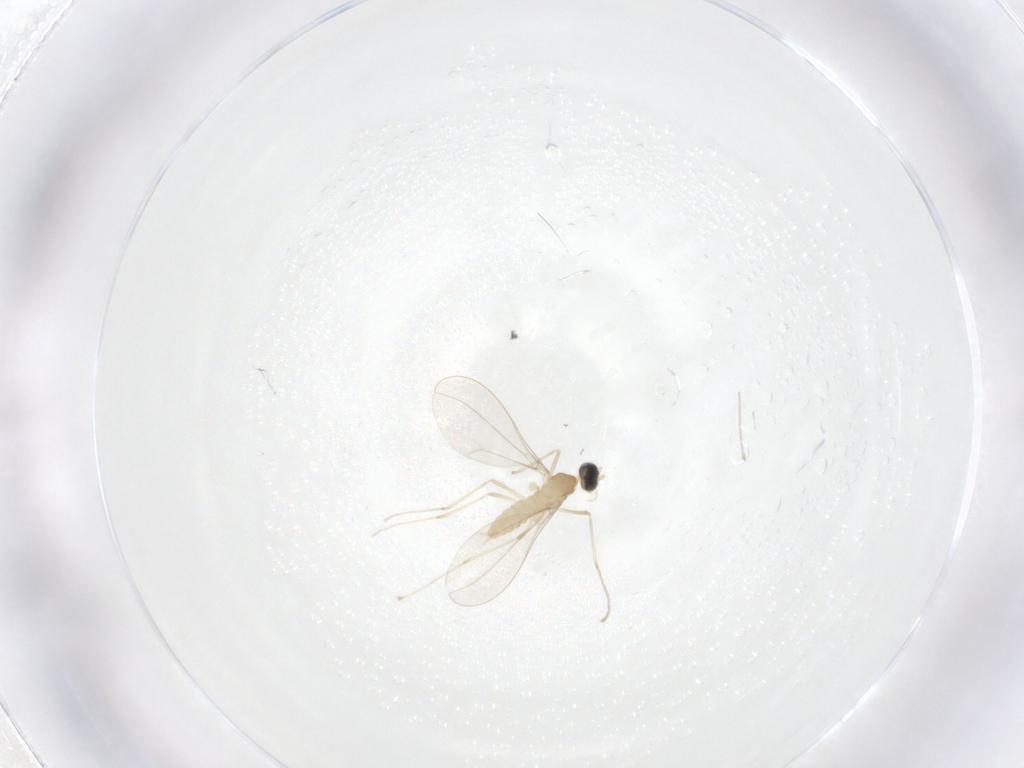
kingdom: Animalia
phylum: Arthropoda
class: Insecta
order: Diptera
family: Cecidomyiidae
